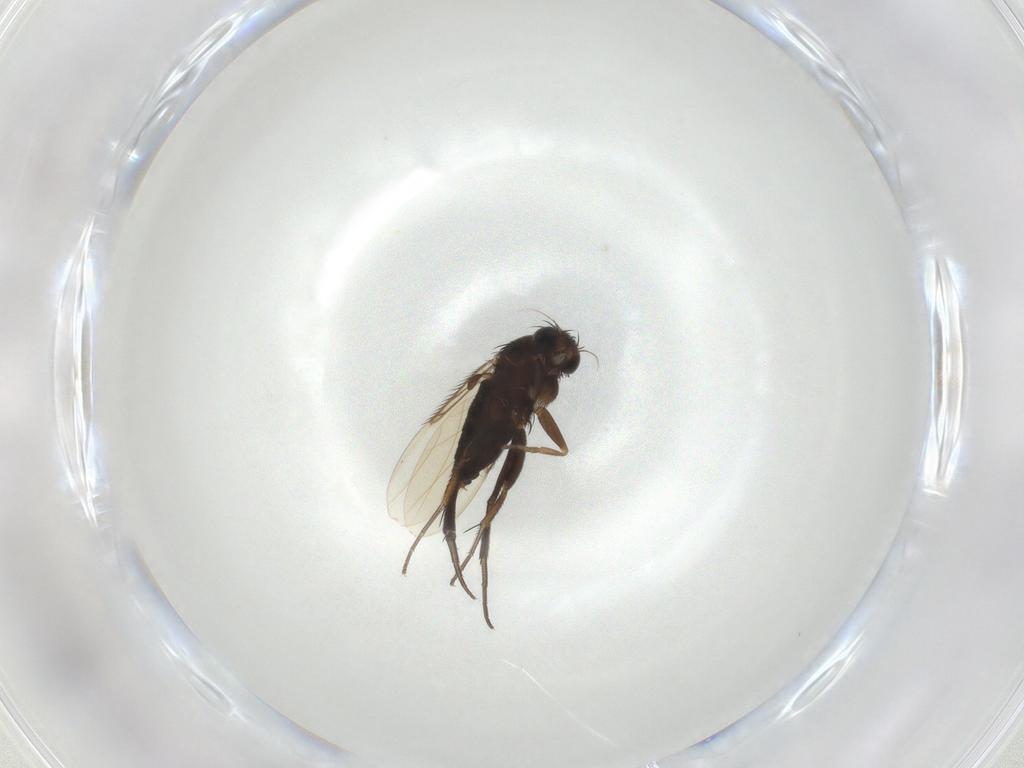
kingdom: Animalia
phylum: Arthropoda
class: Insecta
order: Diptera
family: Phoridae
